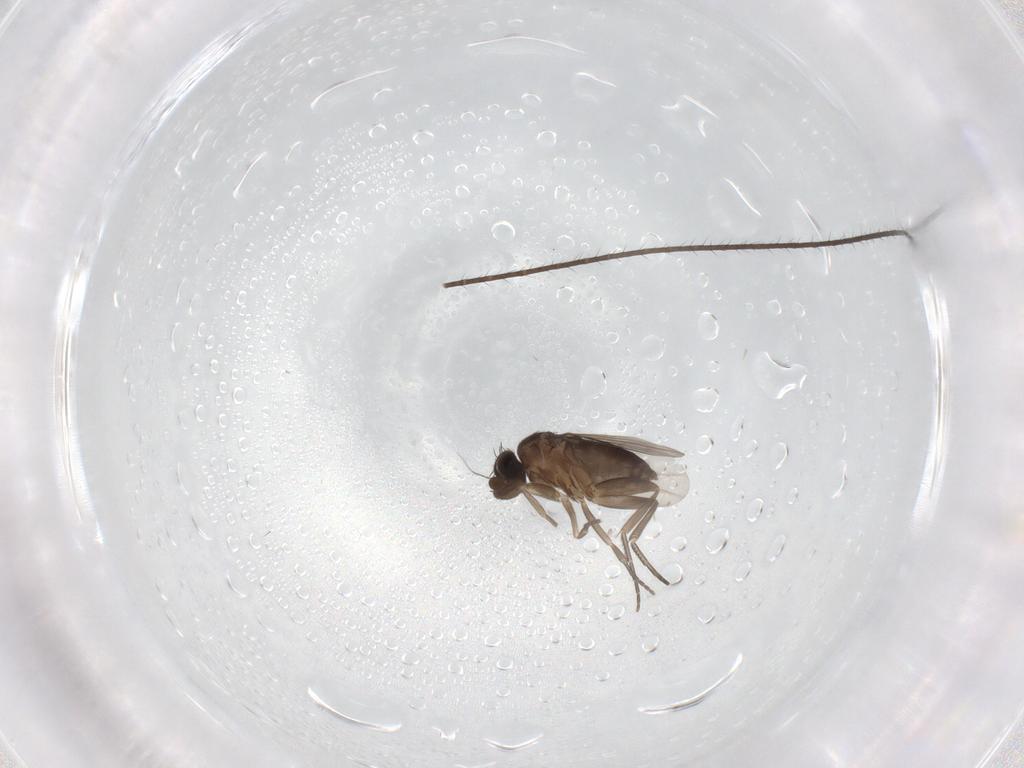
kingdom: Animalia
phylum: Arthropoda
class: Insecta
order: Diptera
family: Phoridae
